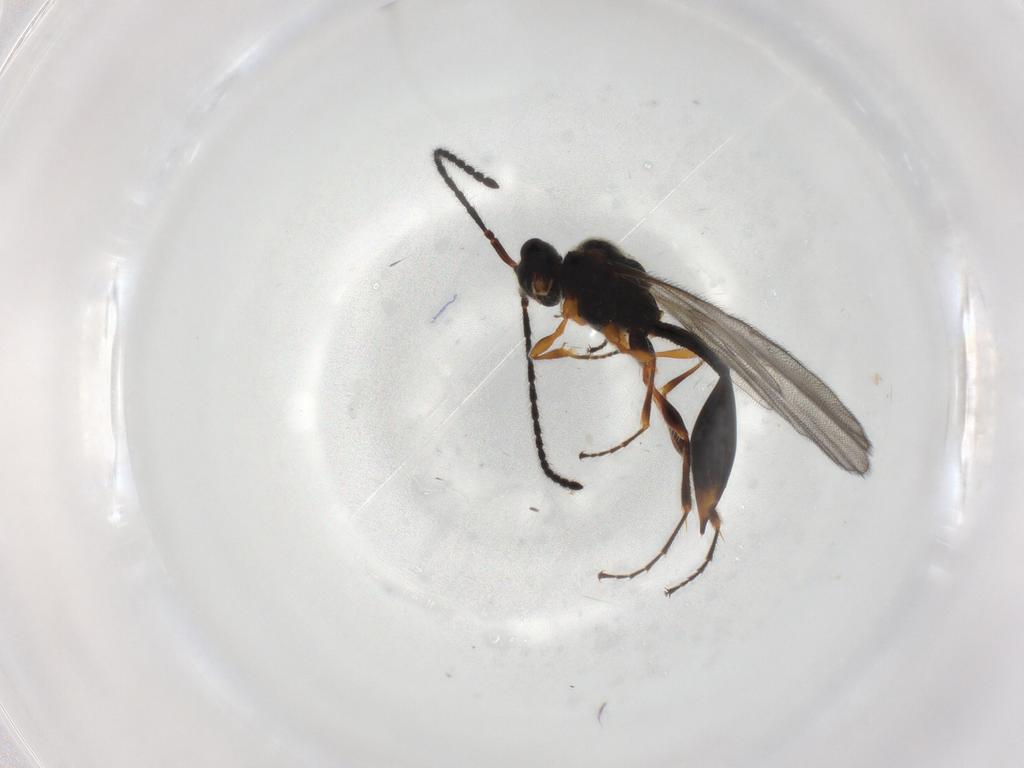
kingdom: Animalia
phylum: Arthropoda
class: Insecta
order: Hymenoptera
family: Diapriidae
